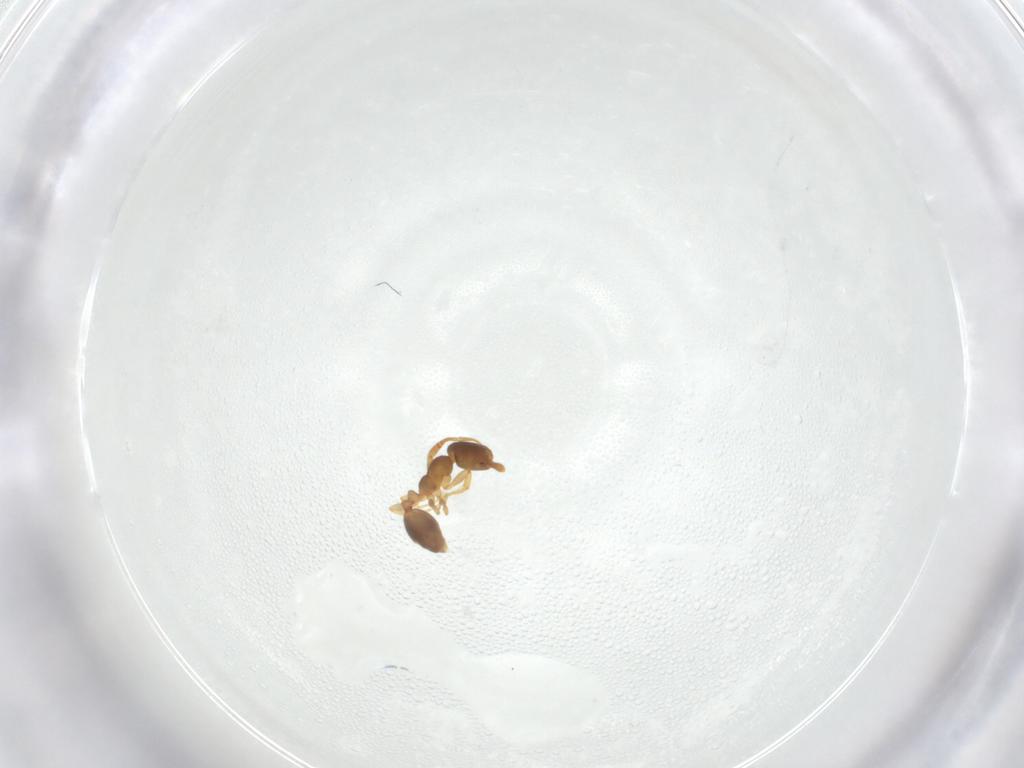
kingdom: Animalia
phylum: Arthropoda
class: Insecta
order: Hymenoptera
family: Formicidae
